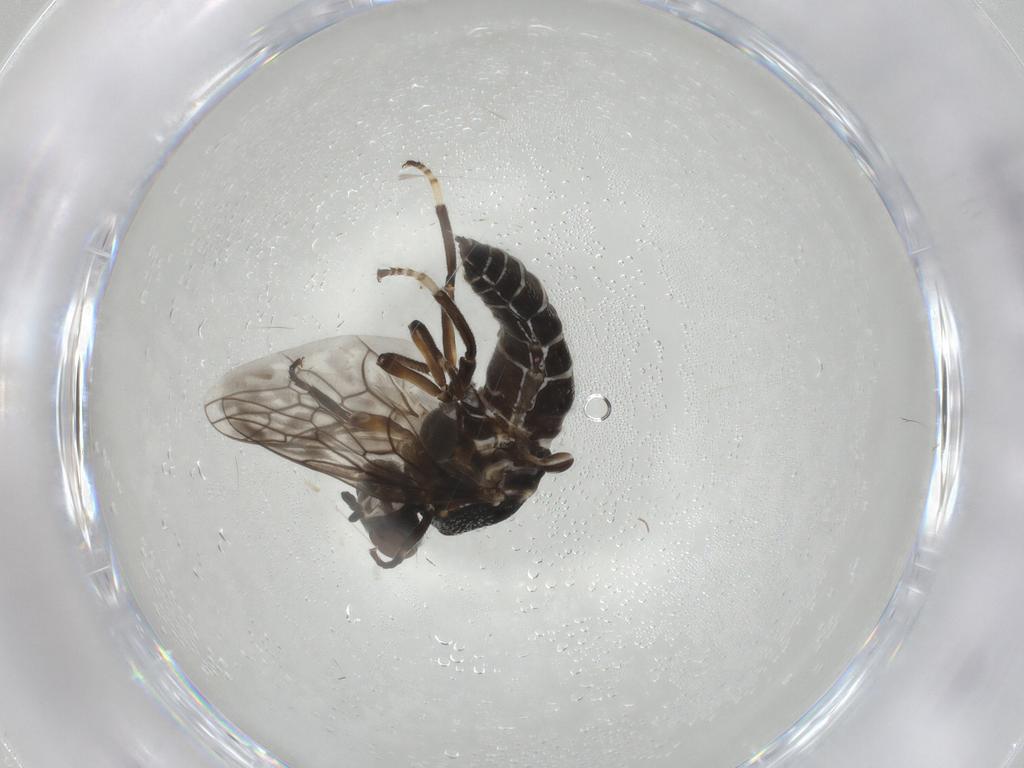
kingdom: Animalia
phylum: Arthropoda
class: Insecta
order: Diptera
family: Scenopinidae
